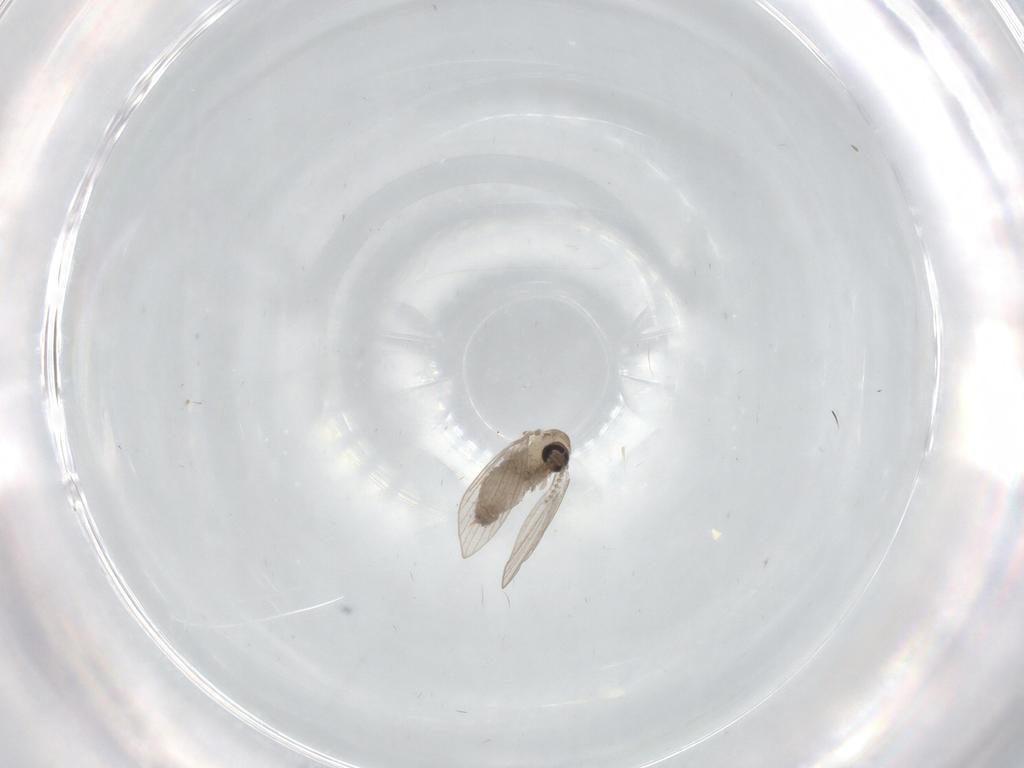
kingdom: Animalia
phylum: Arthropoda
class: Insecta
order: Diptera
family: Psychodidae
